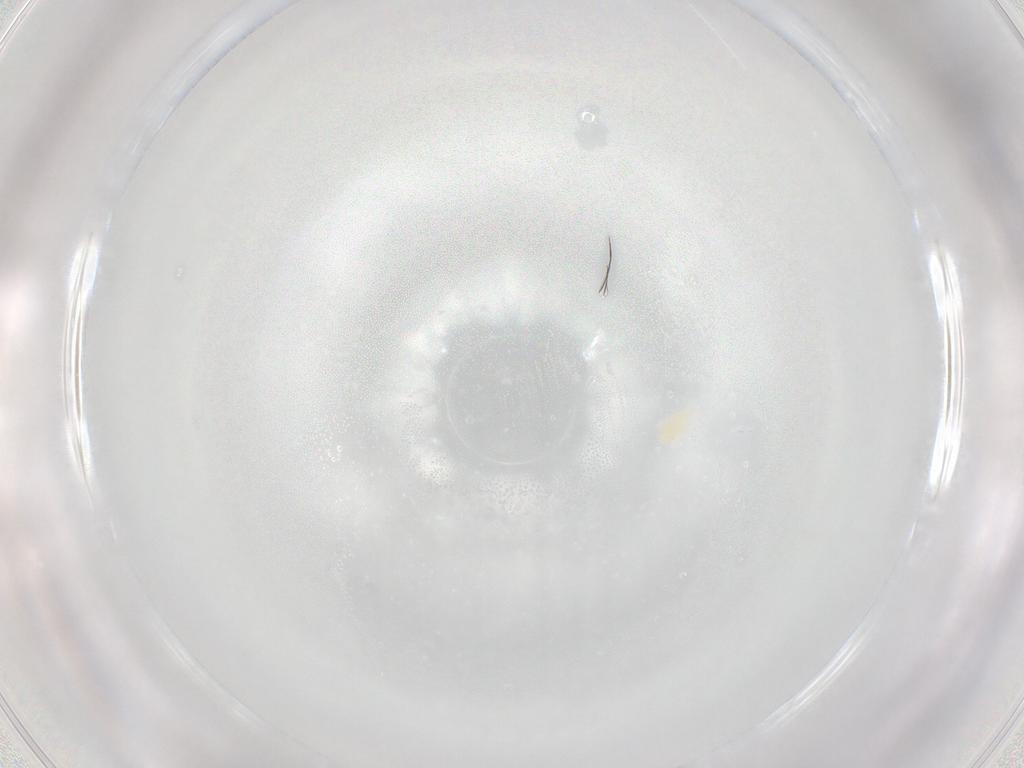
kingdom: Animalia
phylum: Arthropoda
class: Arachnida
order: Trombidiformes
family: Eupodidae
